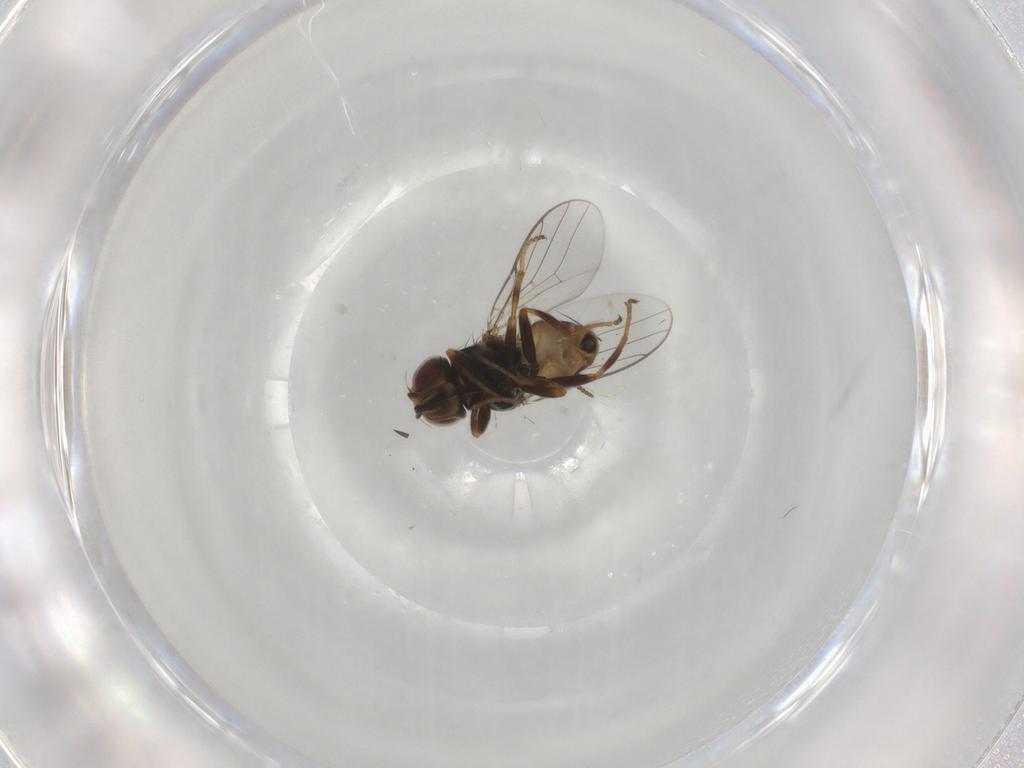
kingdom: Animalia
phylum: Arthropoda
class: Insecta
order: Diptera
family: Chloropidae
